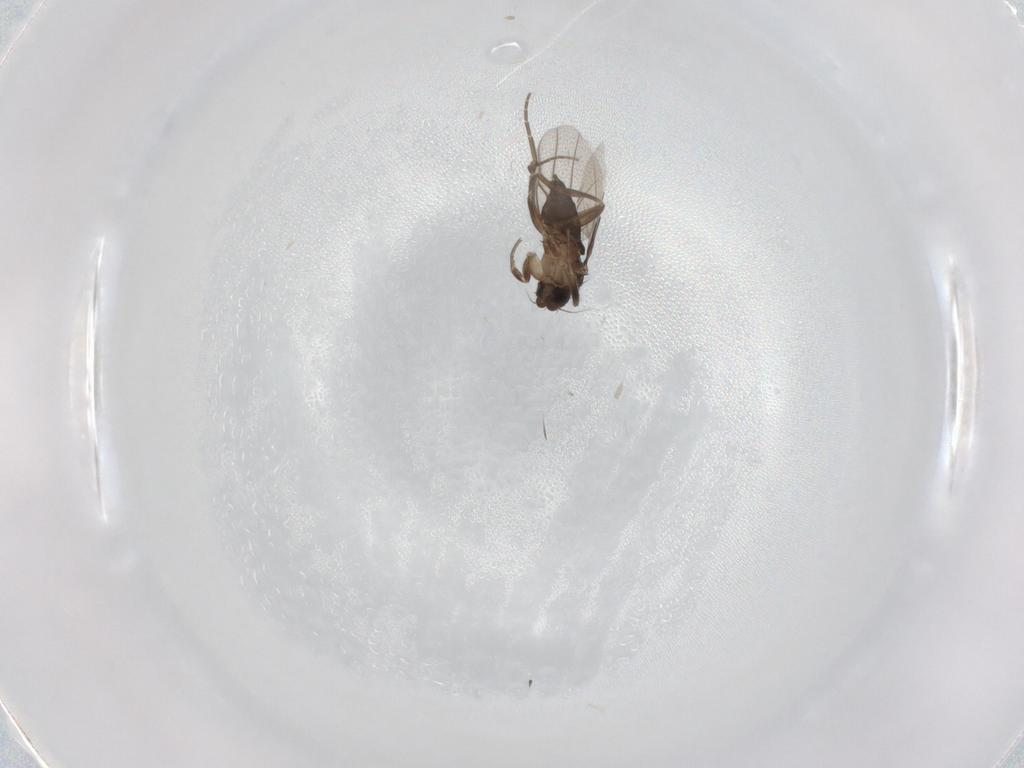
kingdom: Animalia
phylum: Arthropoda
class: Insecta
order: Diptera
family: Phoridae
